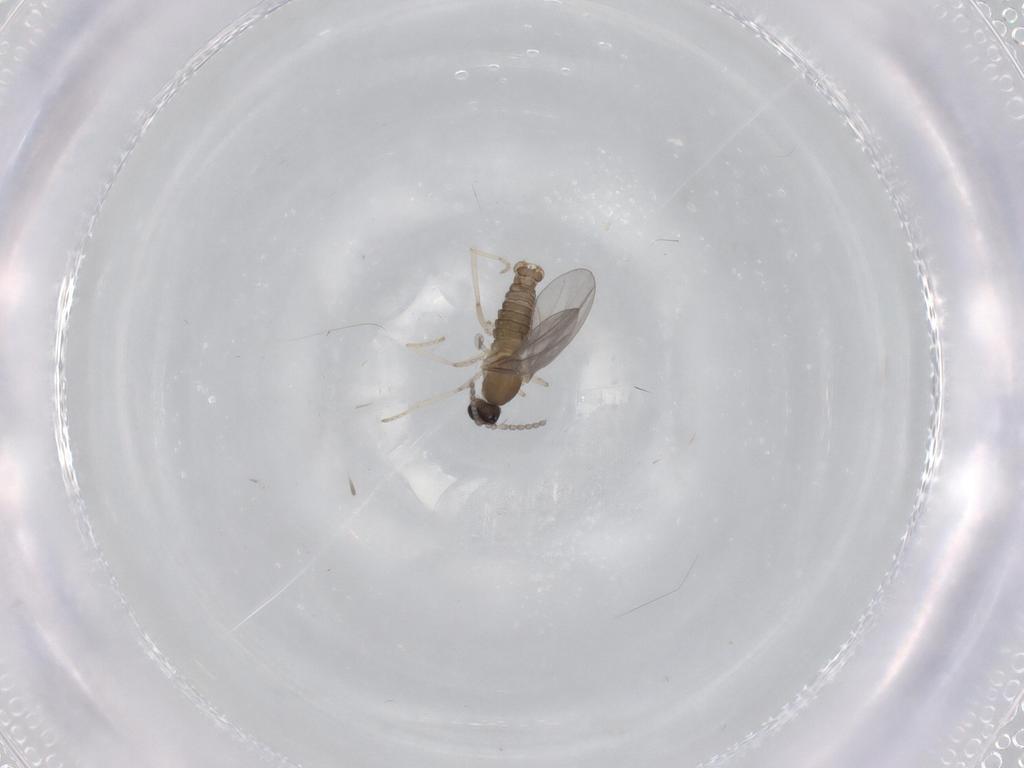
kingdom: Animalia
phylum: Arthropoda
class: Insecta
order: Diptera
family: Cecidomyiidae
